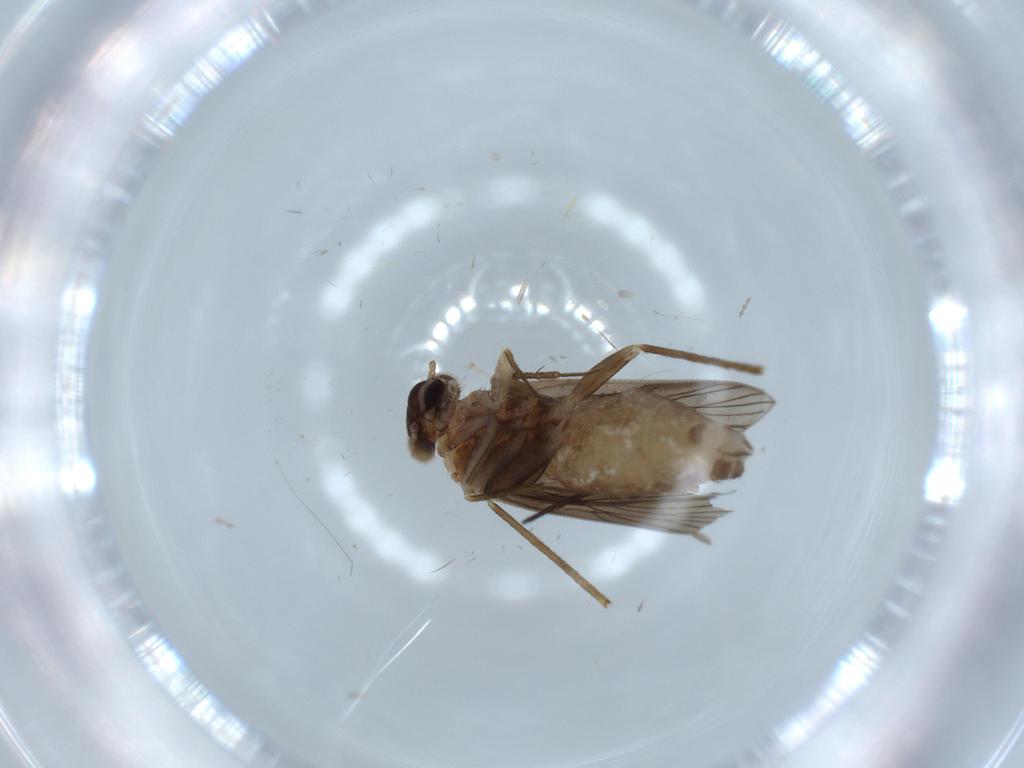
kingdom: Animalia
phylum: Arthropoda
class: Insecta
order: Psocodea
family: Lepidopsocidae
